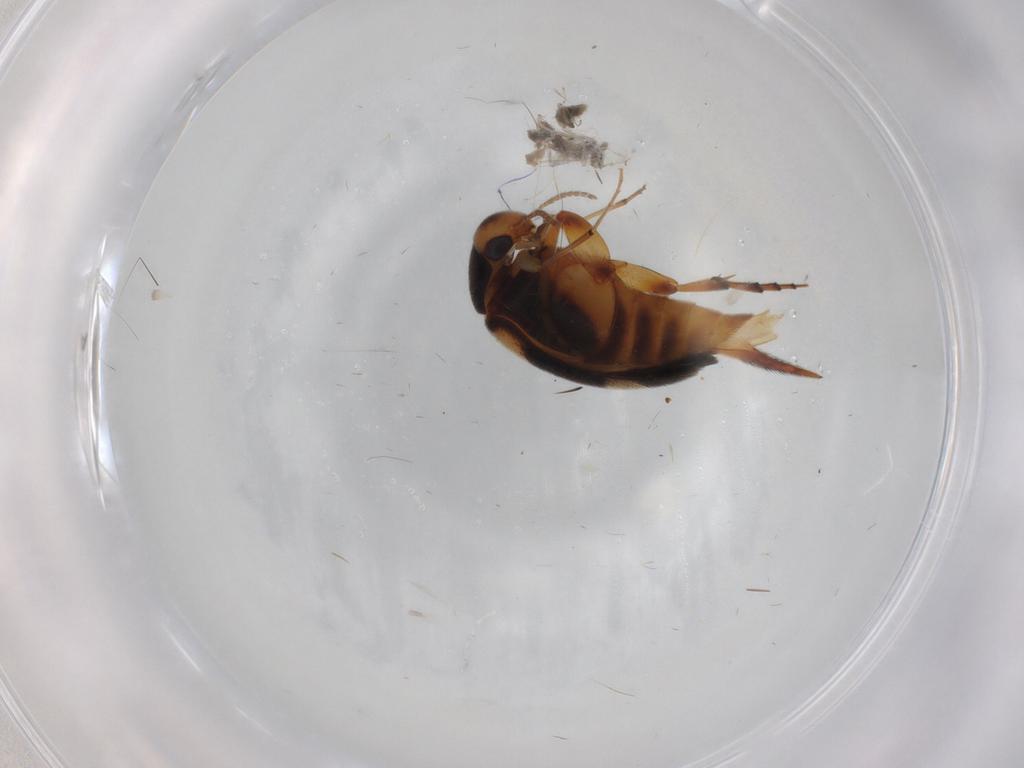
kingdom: Animalia
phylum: Arthropoda
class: Insecta
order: Coleoptera
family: Staphylinidae
